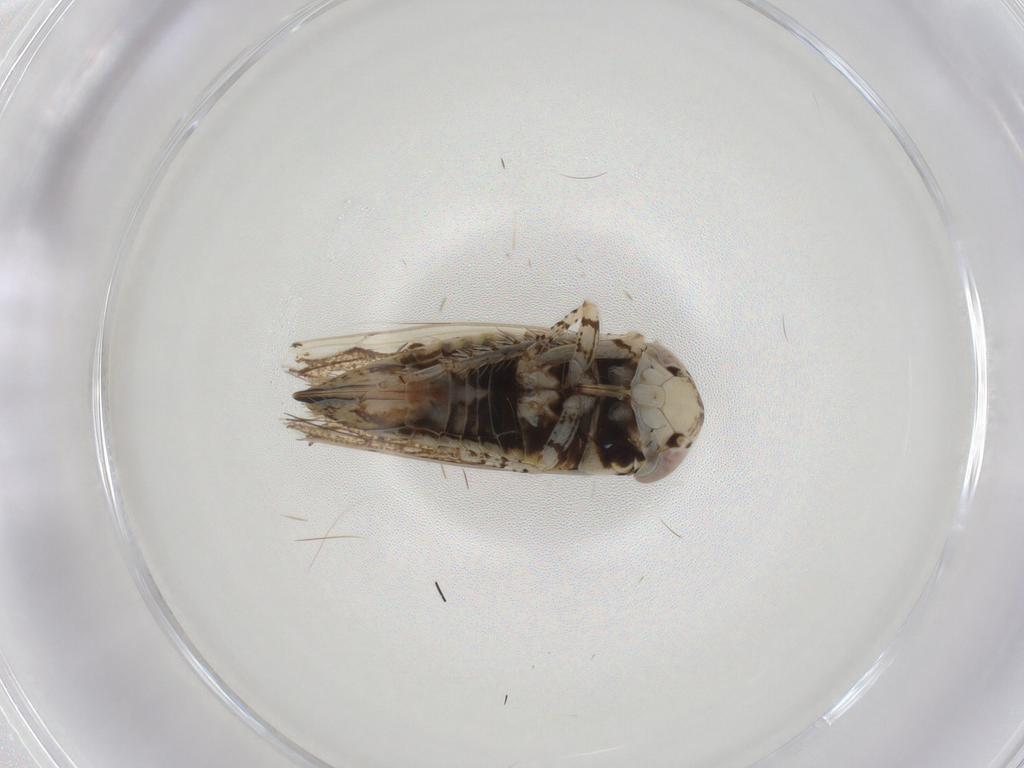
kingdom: Animalia
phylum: Arthropoda
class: Insecta
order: Hemiptera
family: Cicadellidae
